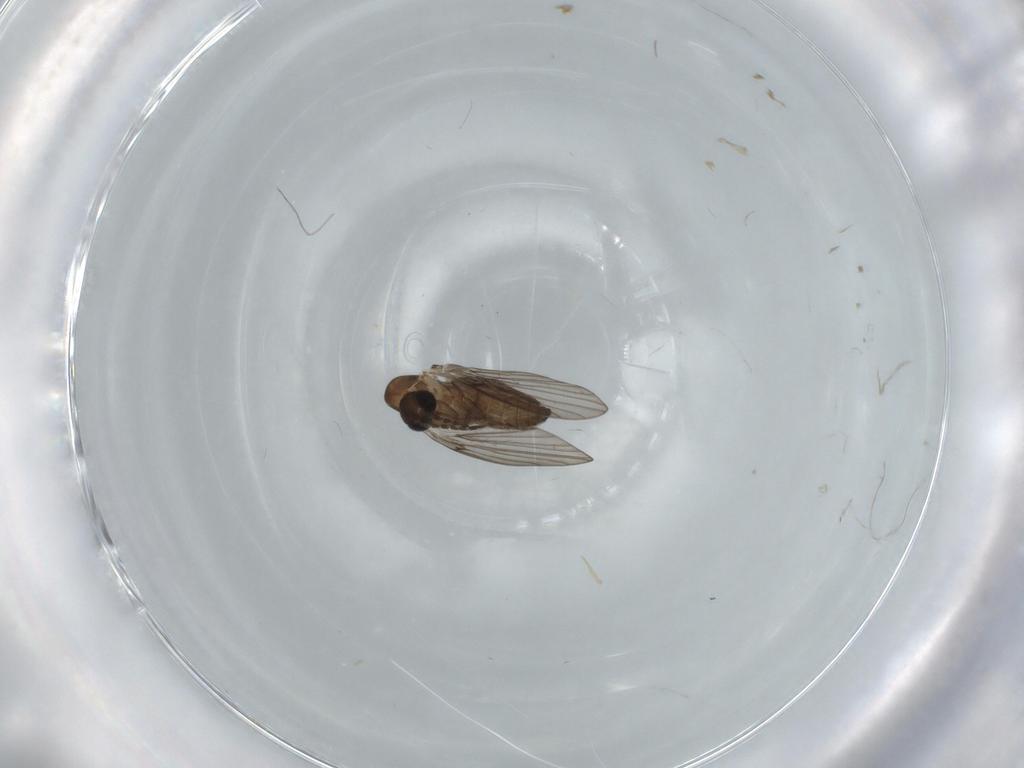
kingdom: Animalia
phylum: Arthropoda
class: Insecta
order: Diptera
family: Psychodidae
